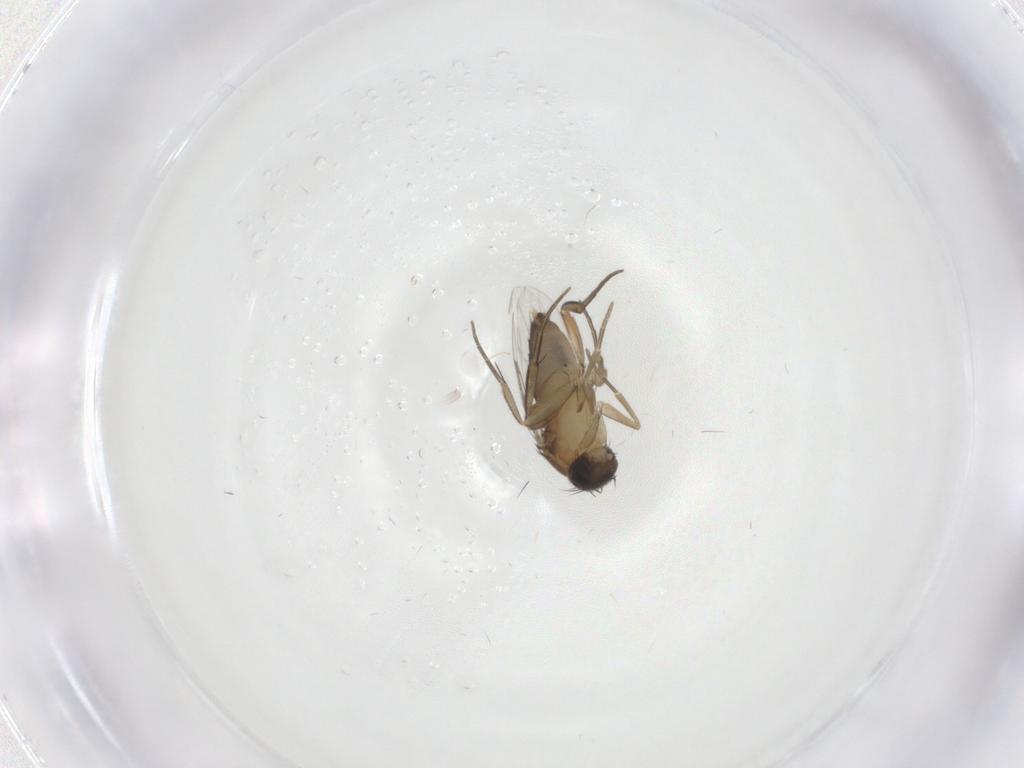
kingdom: Animalia
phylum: Arthropoda
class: Insecta
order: Diptera
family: Phoridae
